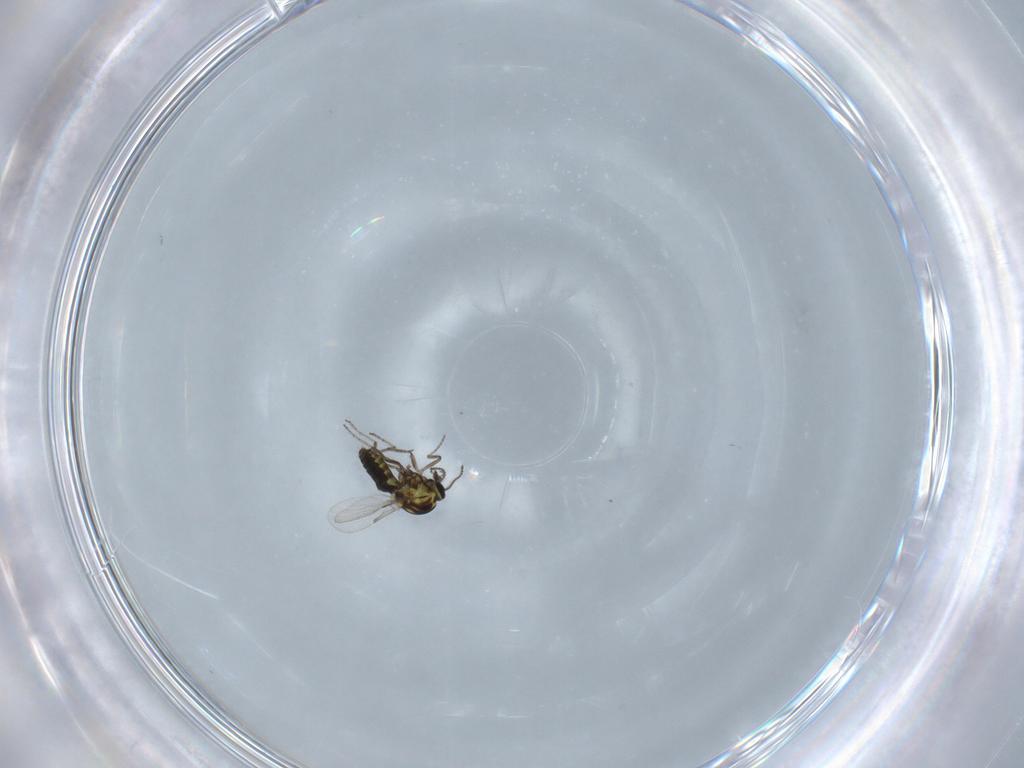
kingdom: Animalia
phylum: Arthropoda
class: Insecta
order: Diptera
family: Ceratopogonidae
